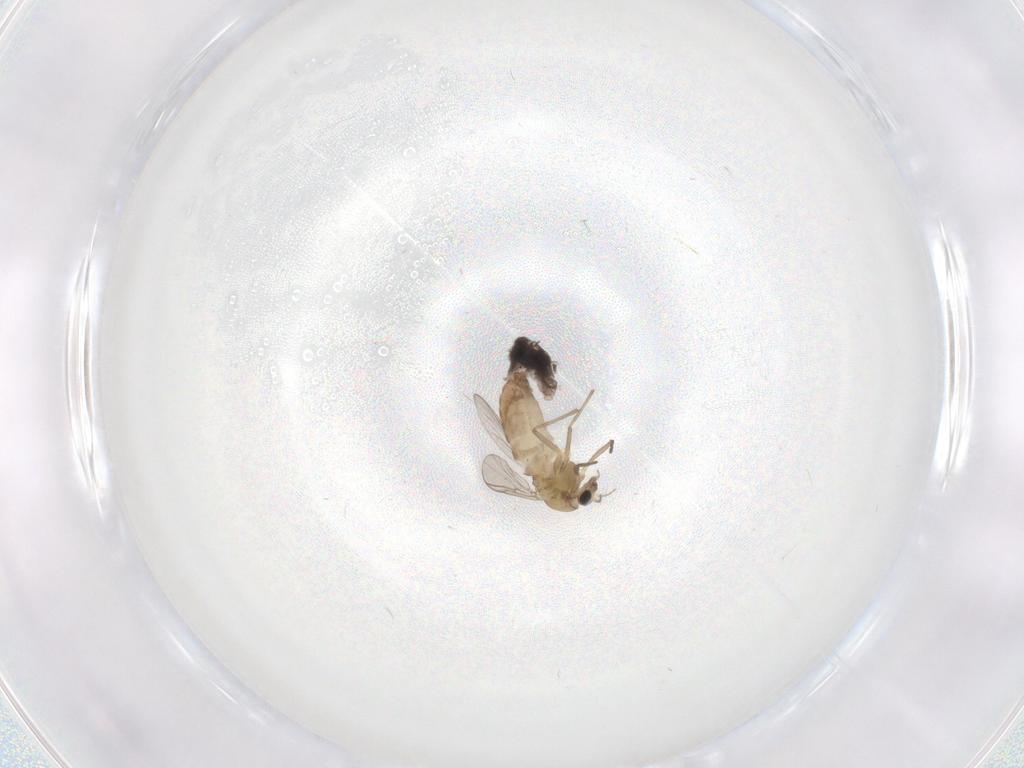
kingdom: Animalia
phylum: Arthropoda
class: Insecta
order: Diptera
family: Chironomidae
